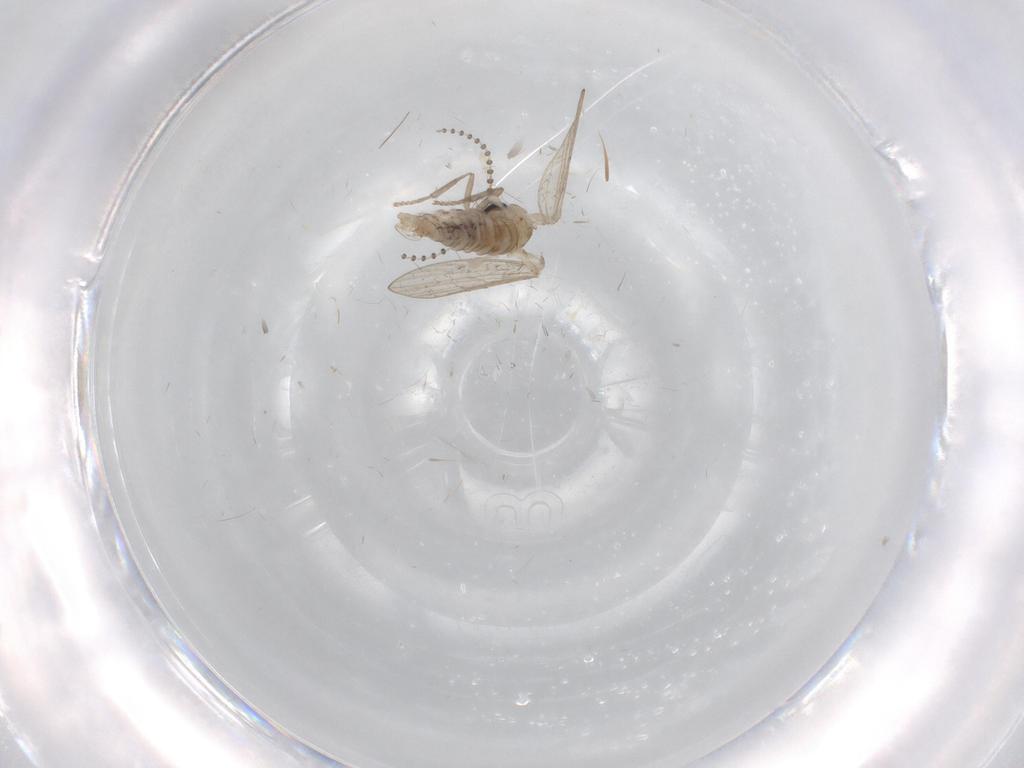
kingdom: Animalia
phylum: Arthropoda
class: Insecta
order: Diptera
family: Psychodidae
